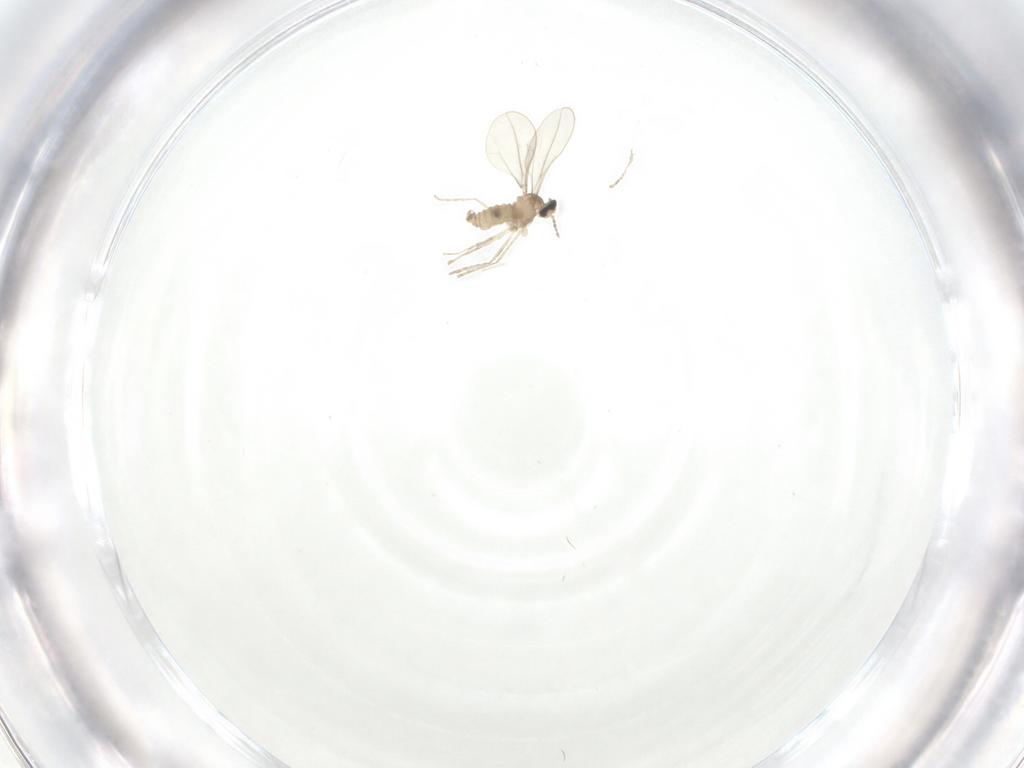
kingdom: Animalia
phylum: Arthropoda
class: Insecta
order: Diptera
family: Cecidomyiidae
